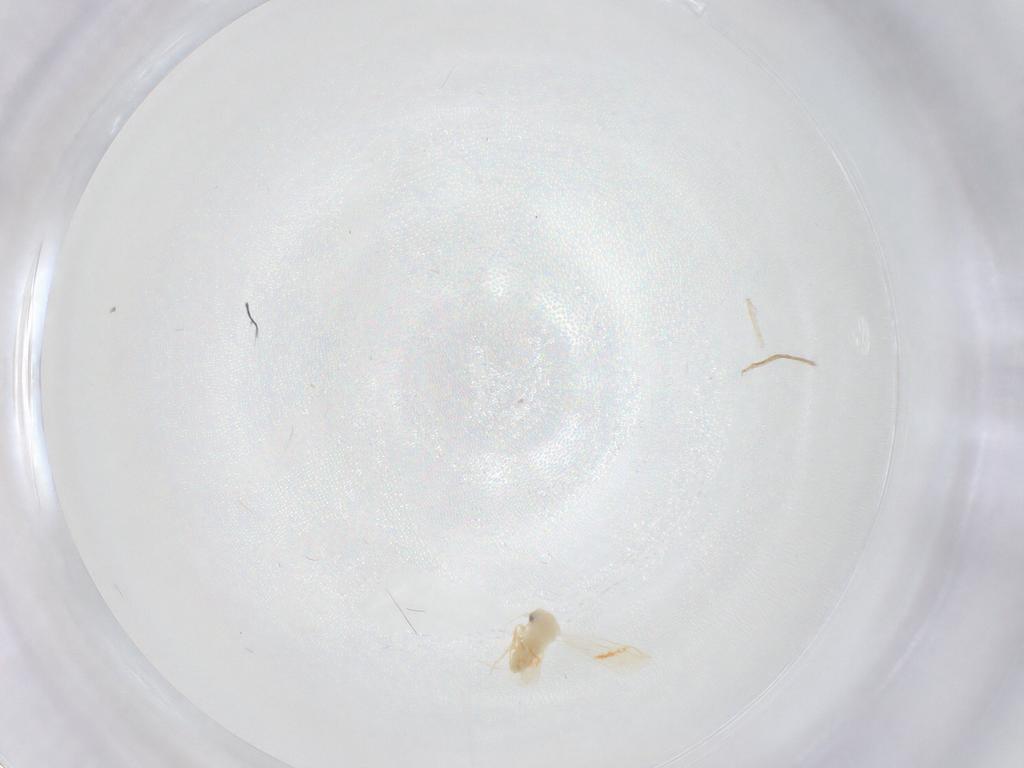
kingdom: Animalia
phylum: Arthropoda
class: Insecta
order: Hemiptera
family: Aleyrodidae
